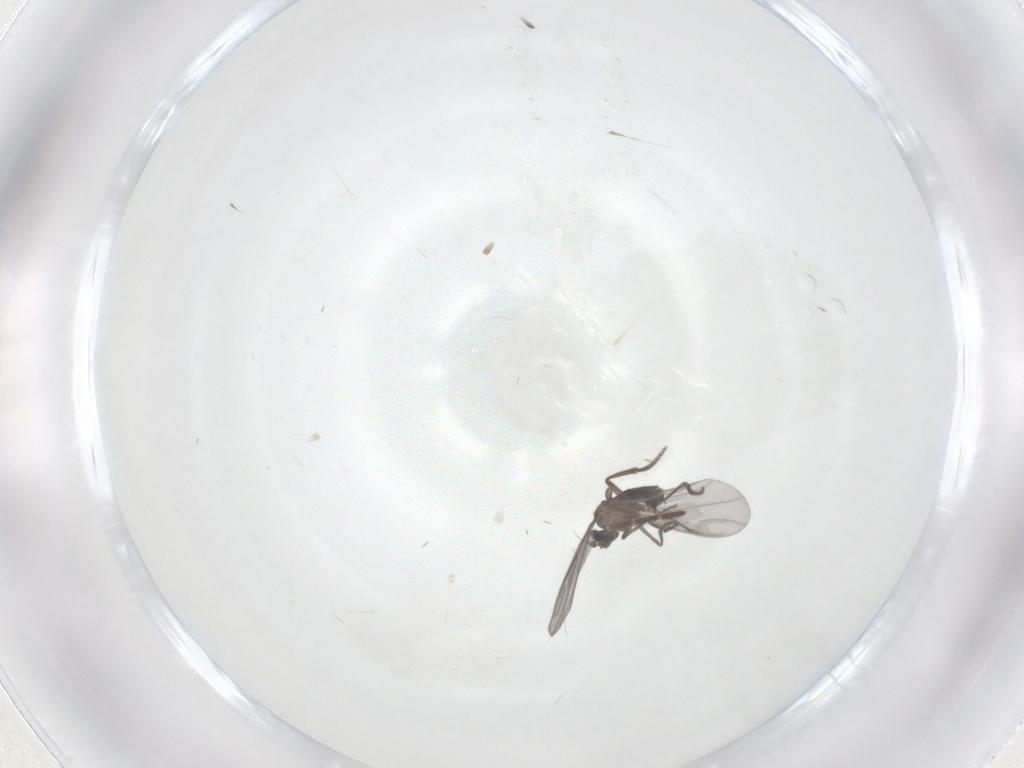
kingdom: Animalia
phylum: Arthropoda
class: Insecta
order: Diptera
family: Phoridae
